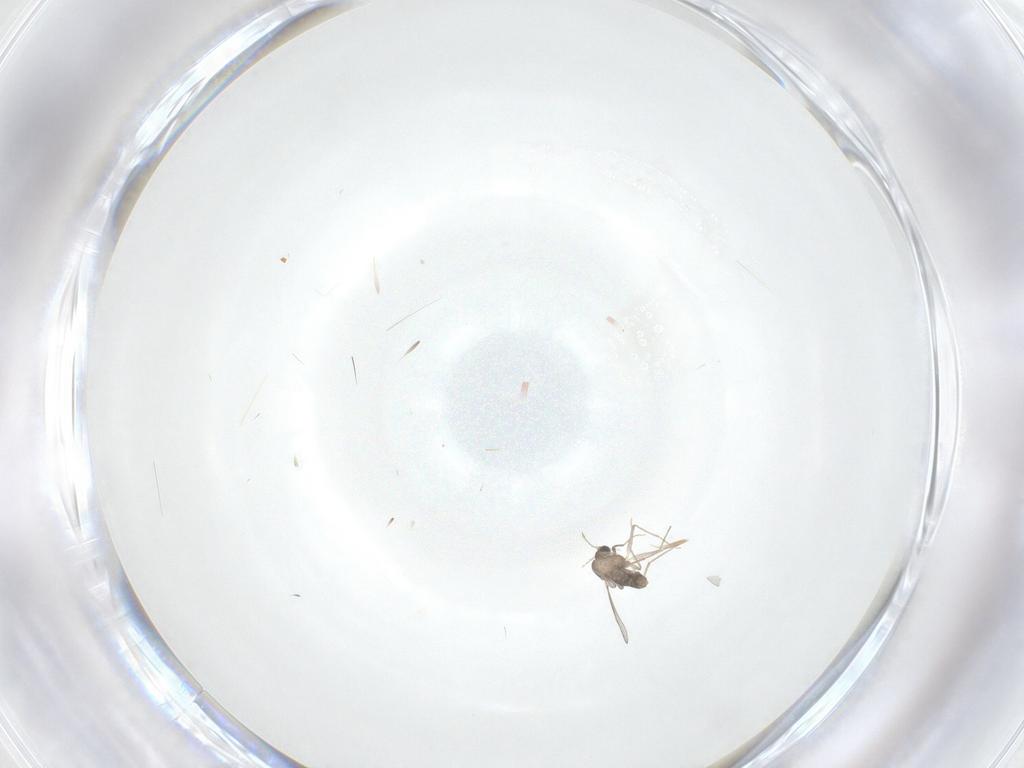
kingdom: Animalia
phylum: Arthropoda
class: Insecta
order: Diptera
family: Chironomidae
